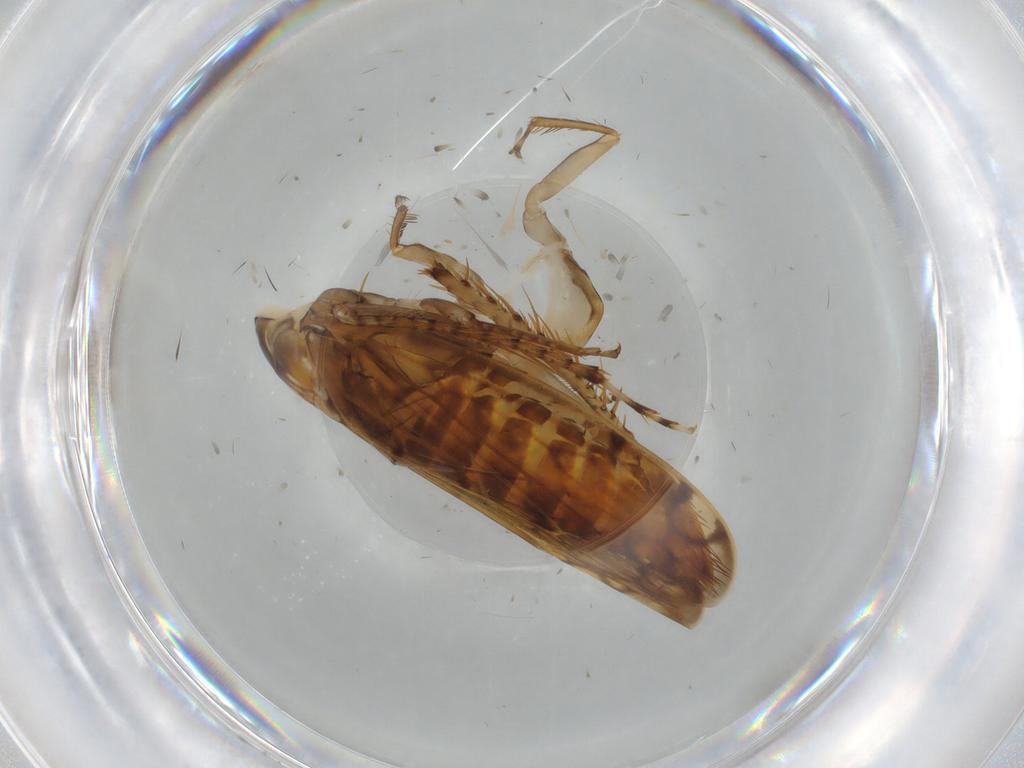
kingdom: Animalia
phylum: Arthropoda
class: Insecta
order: Hemiptera
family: Cicadellidae
